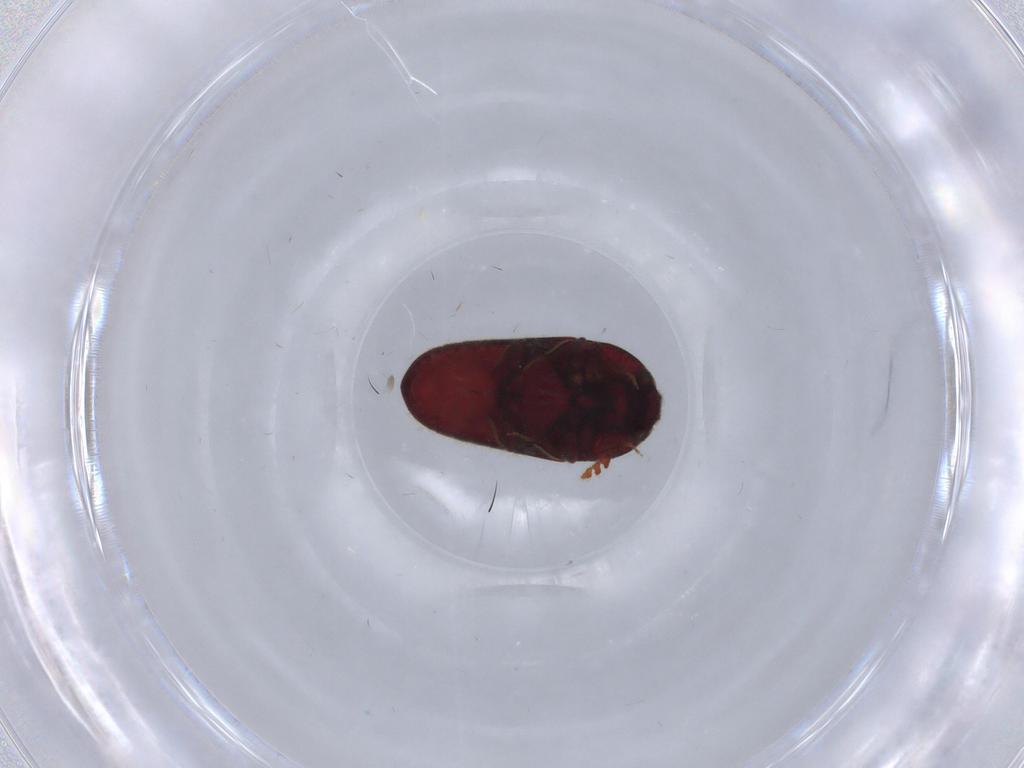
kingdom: Animalia
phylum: Arthropoda
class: Insecta
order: Coleoptera
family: Throscidae
